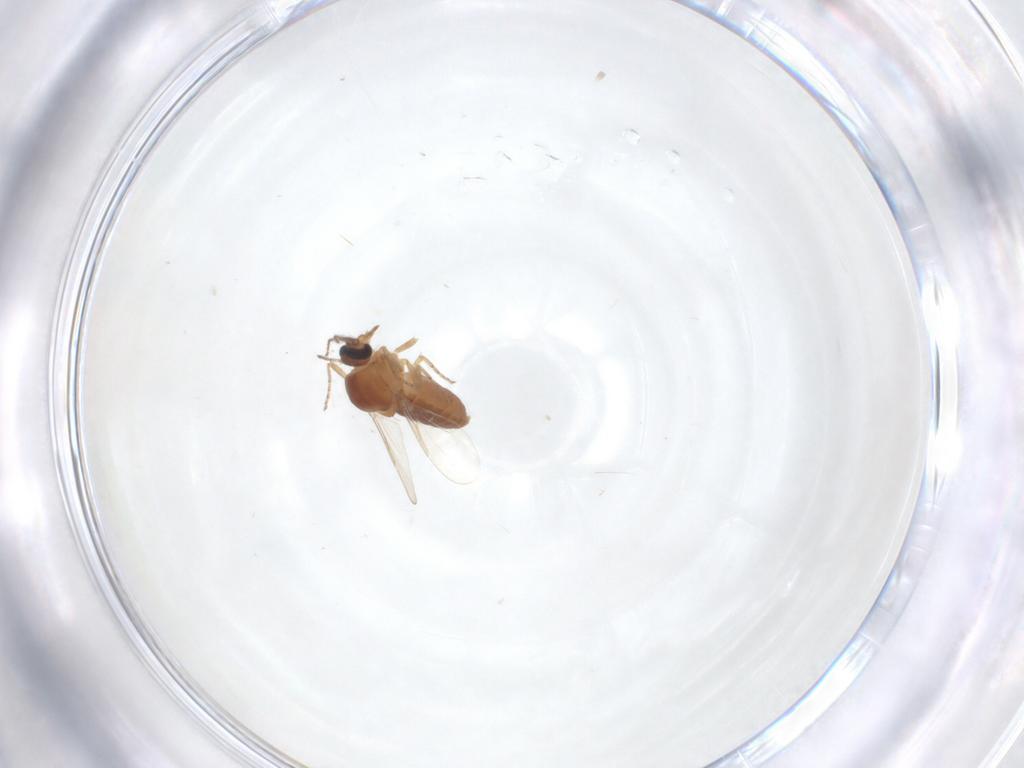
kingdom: Animalia
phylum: Arthropoda
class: Insecta
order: Diptera
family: Ceratopogonidae
